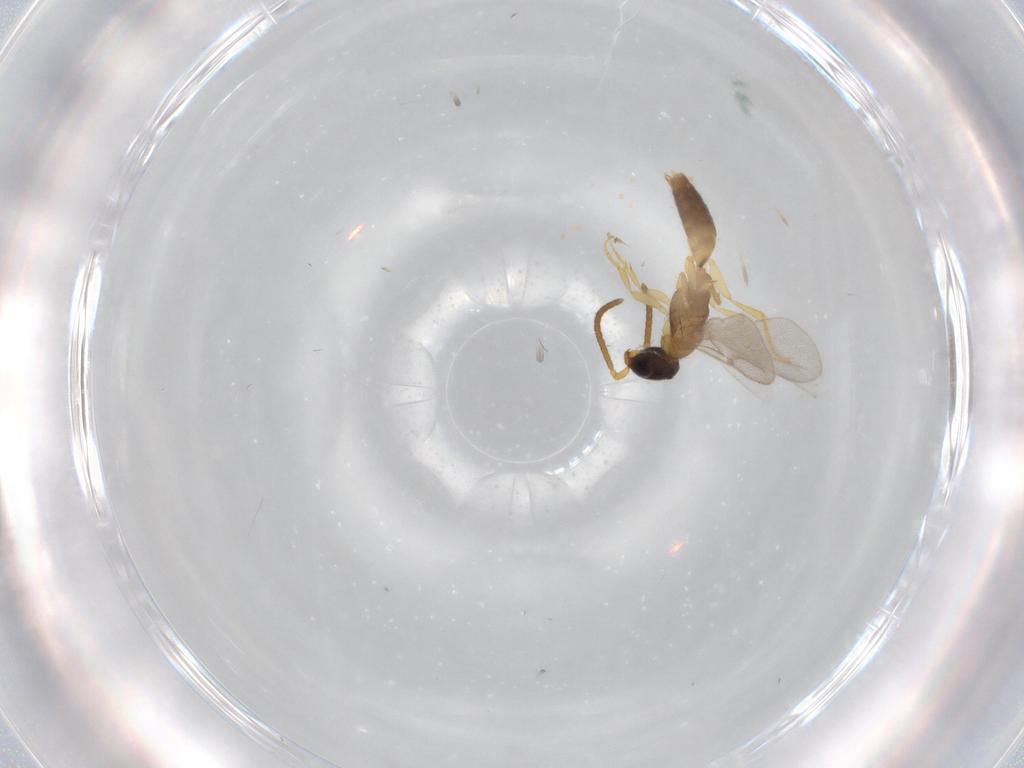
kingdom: Animalia
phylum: Arthropoda
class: Insecta
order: Hymenoptera
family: Bethylidae
